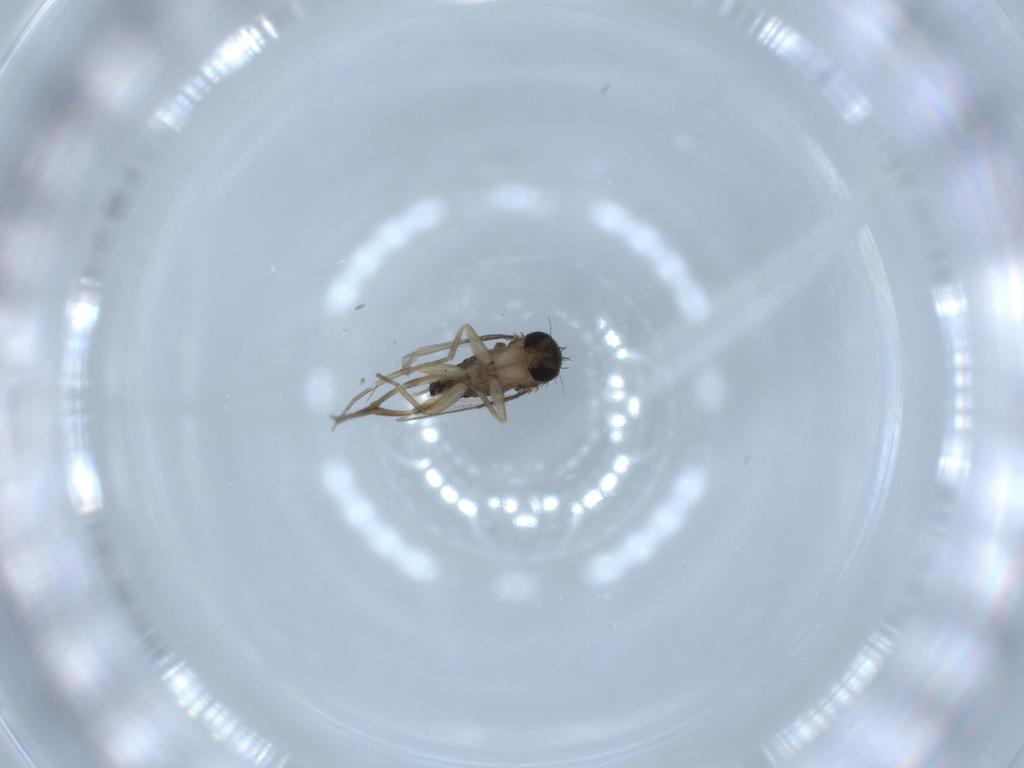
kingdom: Animalia
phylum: Arthropoda
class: Insecta
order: Diptera
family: Phoridae
